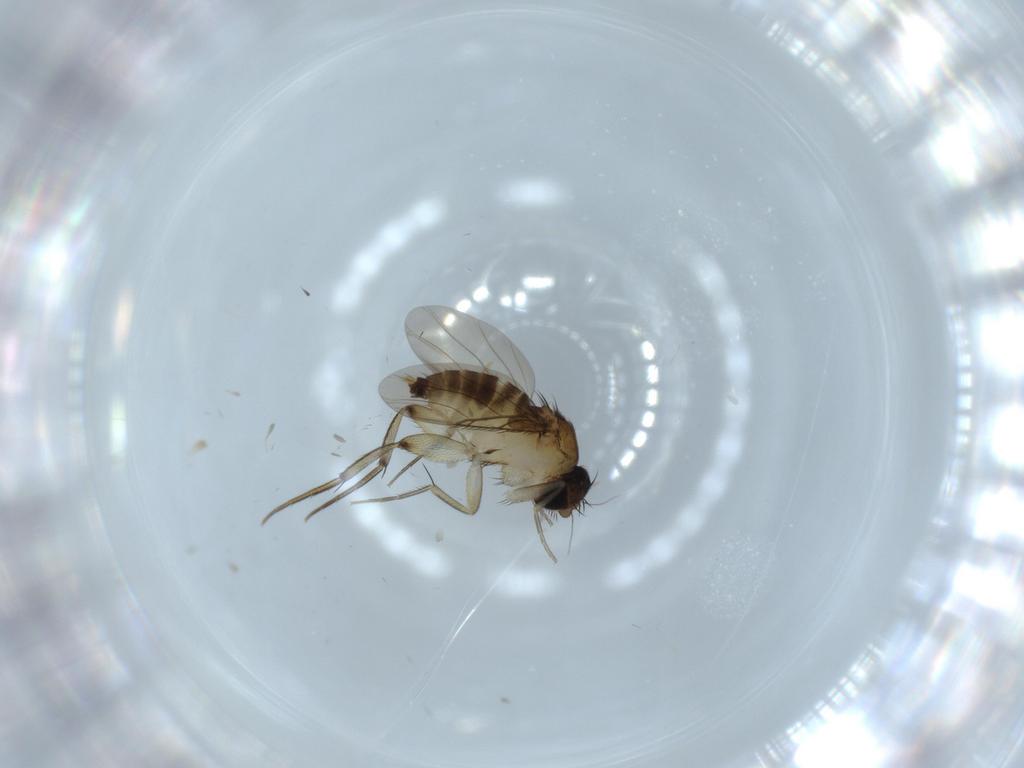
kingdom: Animalia
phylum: Arthropoda
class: Insecta
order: Diptera
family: Phoridae
